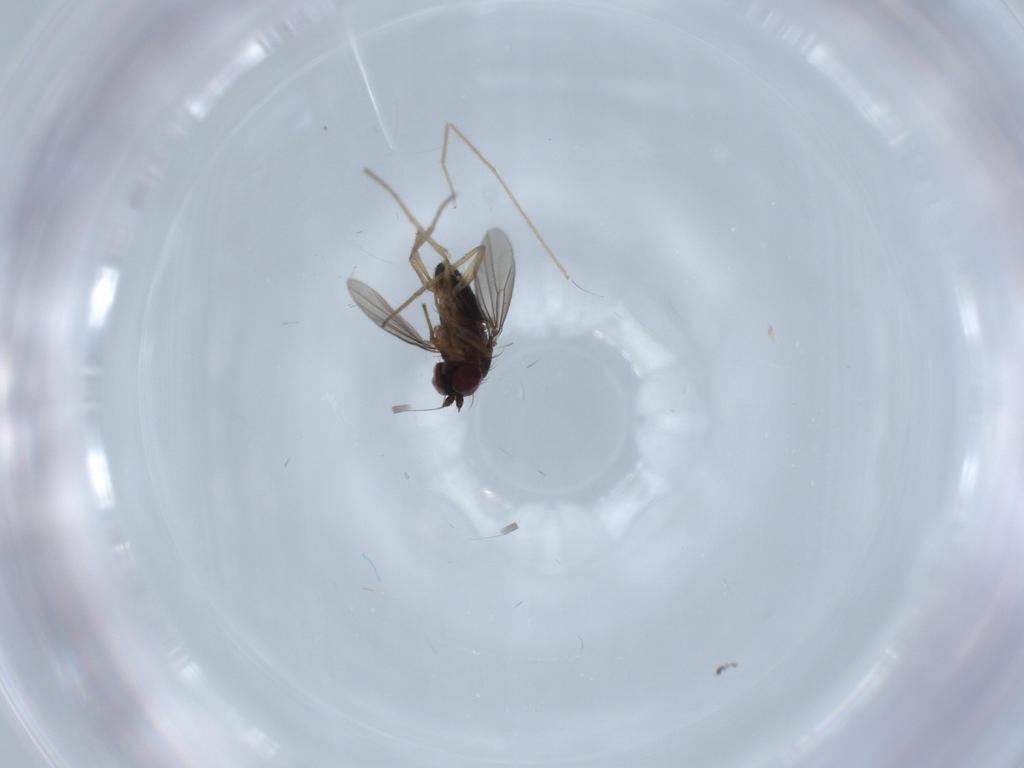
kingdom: Animalia
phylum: Arthropoda
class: Insecta
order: Diptera
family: Dolichopodidae
